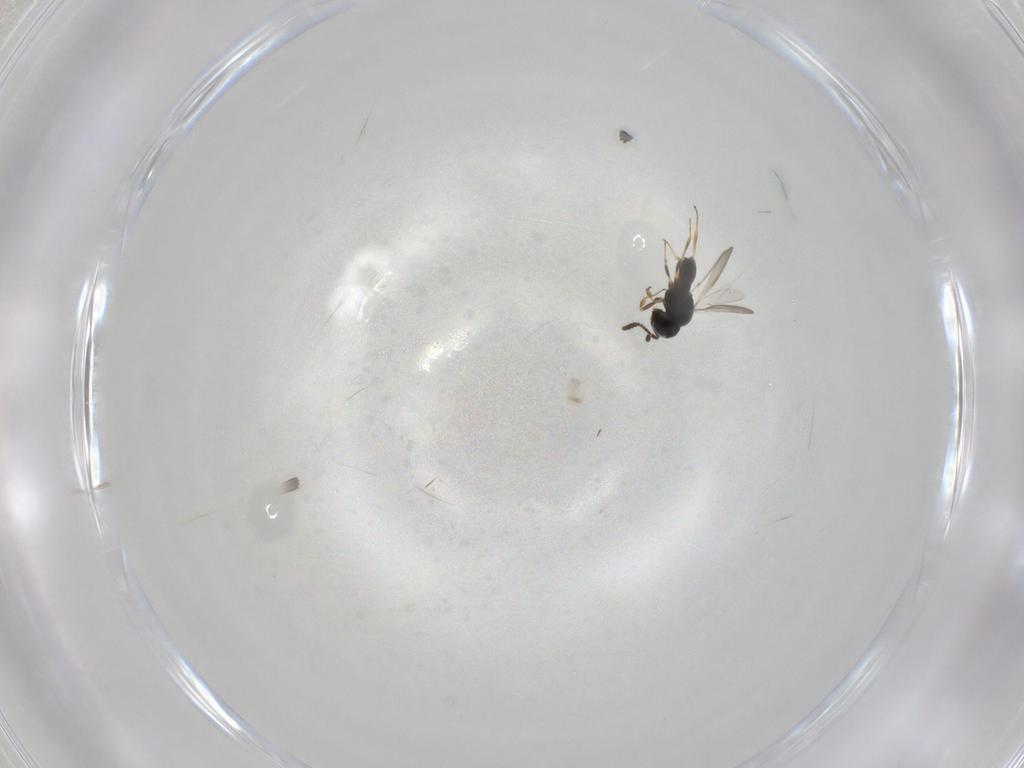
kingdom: Animalia
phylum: Arthropoda
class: Insecta
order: Hymenoptera
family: Scelionidae
